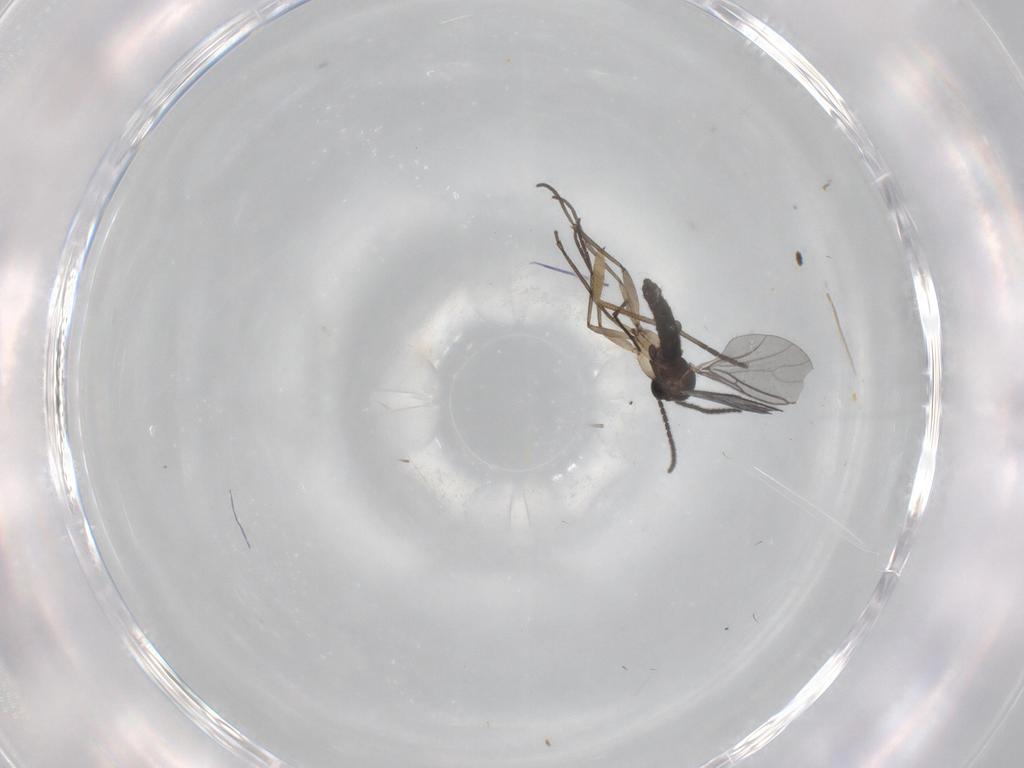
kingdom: Animalia
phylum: Arthropoda
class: Insecta
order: Diptera
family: Sciaridae
